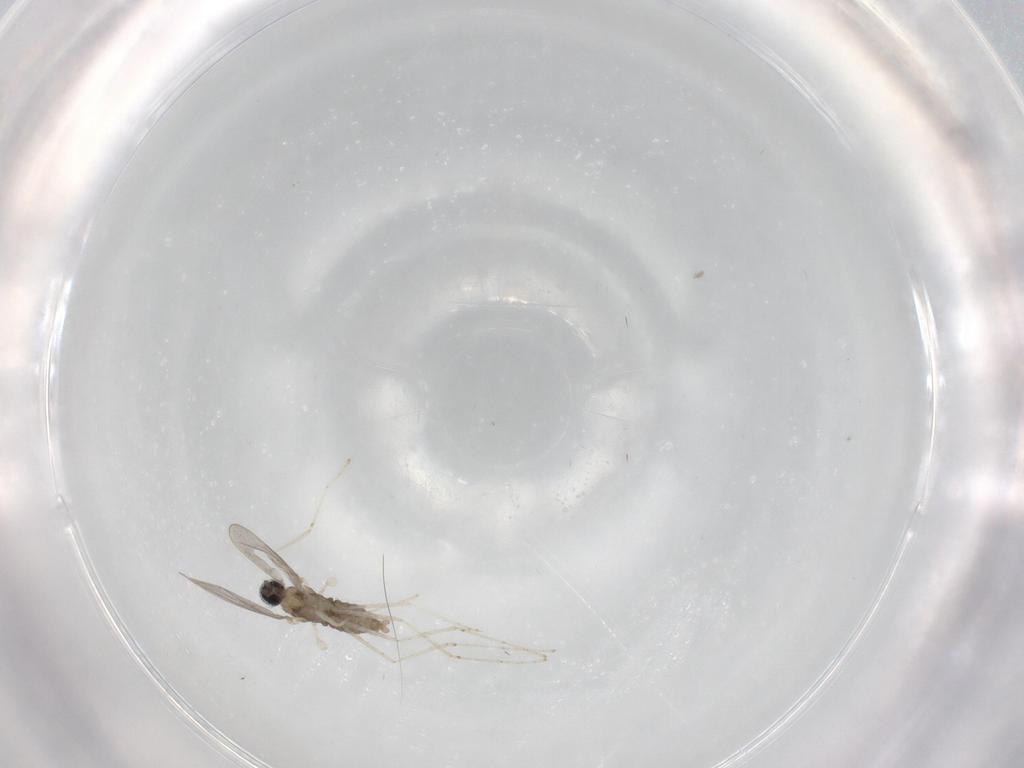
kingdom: Animalia
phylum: Arthropoda
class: Insecta
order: Diptera
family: Cecidomyiidae
